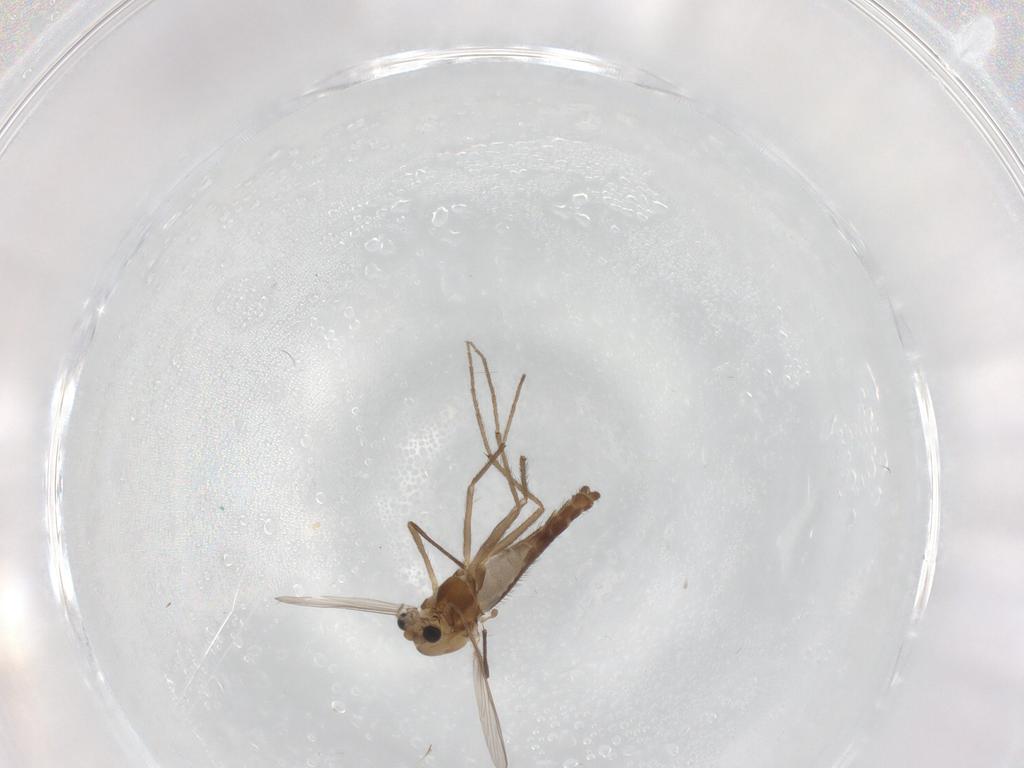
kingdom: Animalia
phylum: Arthropoda
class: Insecta
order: Diptera
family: Chironomidae
